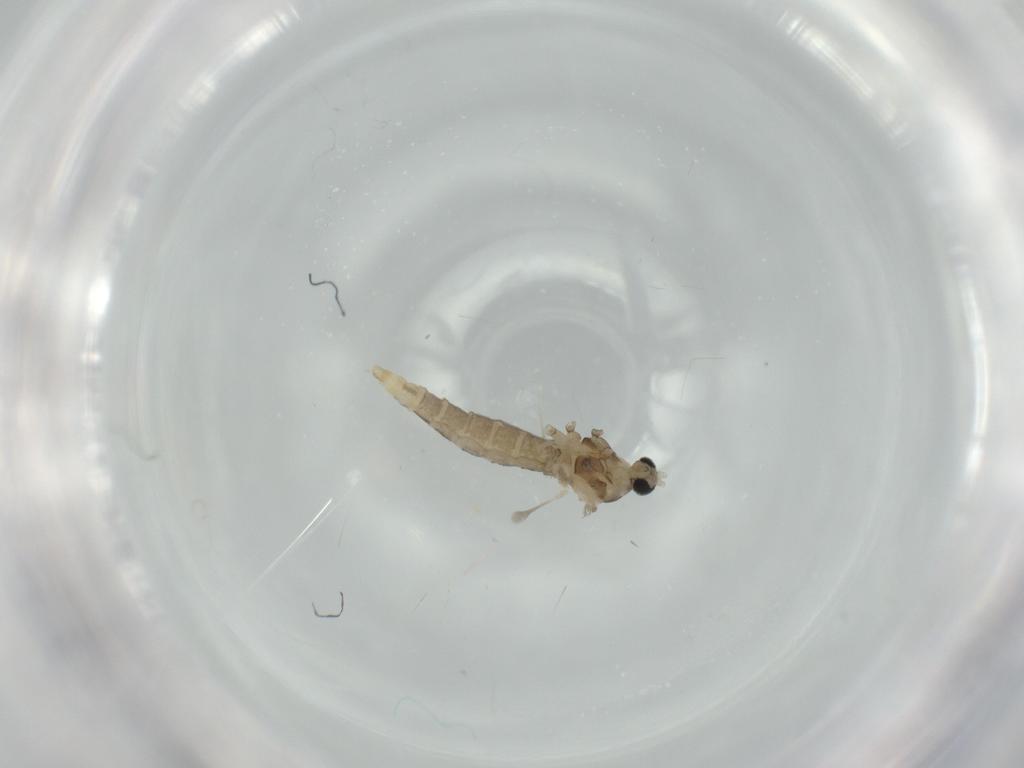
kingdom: Animalia
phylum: Arthropoda
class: Insecta
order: Diptera
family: Cecidomyiidae
